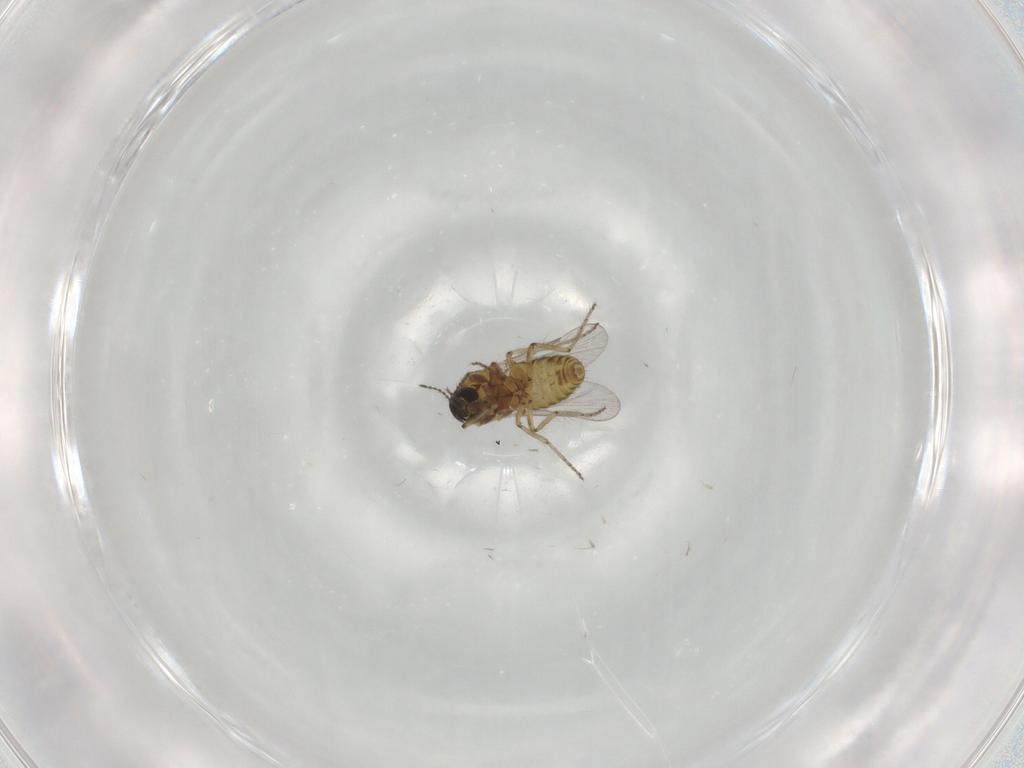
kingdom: Animalia
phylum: Arthropoda
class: Insecta
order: Diptera
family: Ceratopogonidae
